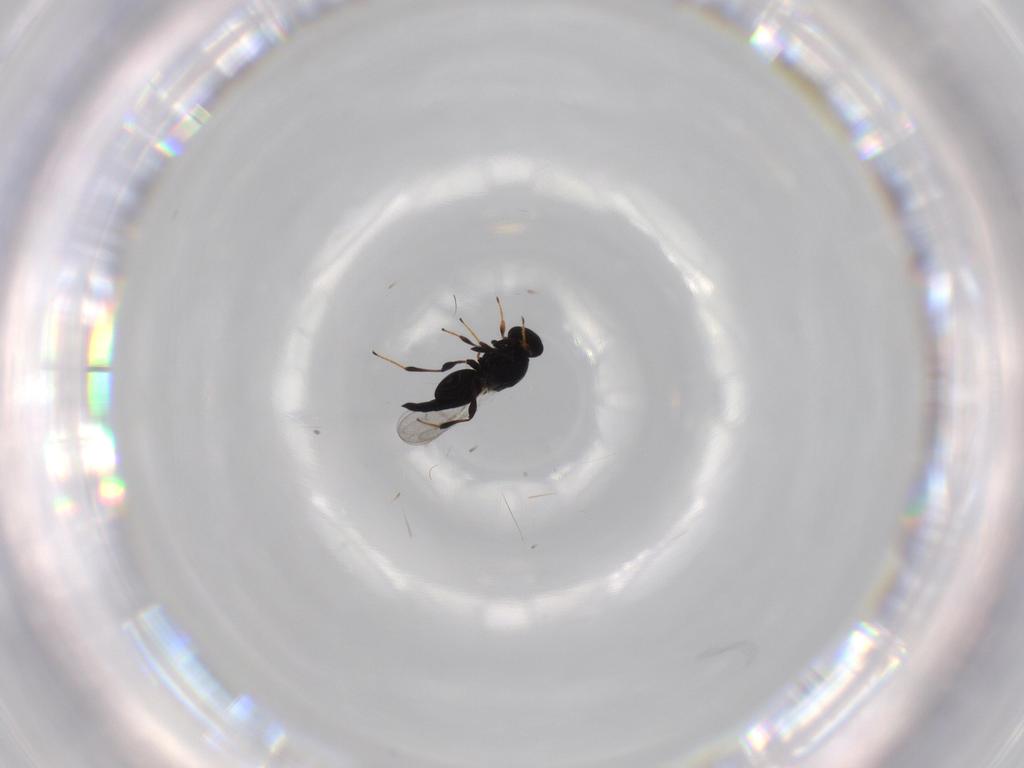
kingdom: Animalia
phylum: Arthropoda
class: Insecta
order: Hymenoptera
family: Platygastridae
